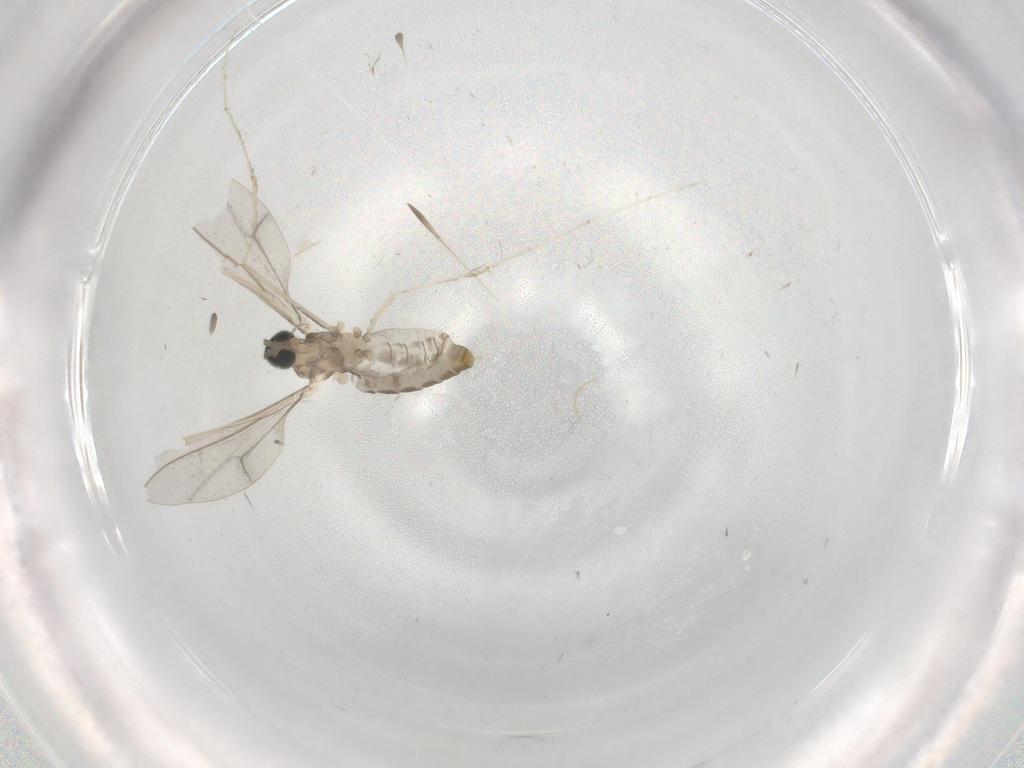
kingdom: Animalia
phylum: Arthropoda
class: Insecta
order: Diptera
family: Cecidomyiidae
